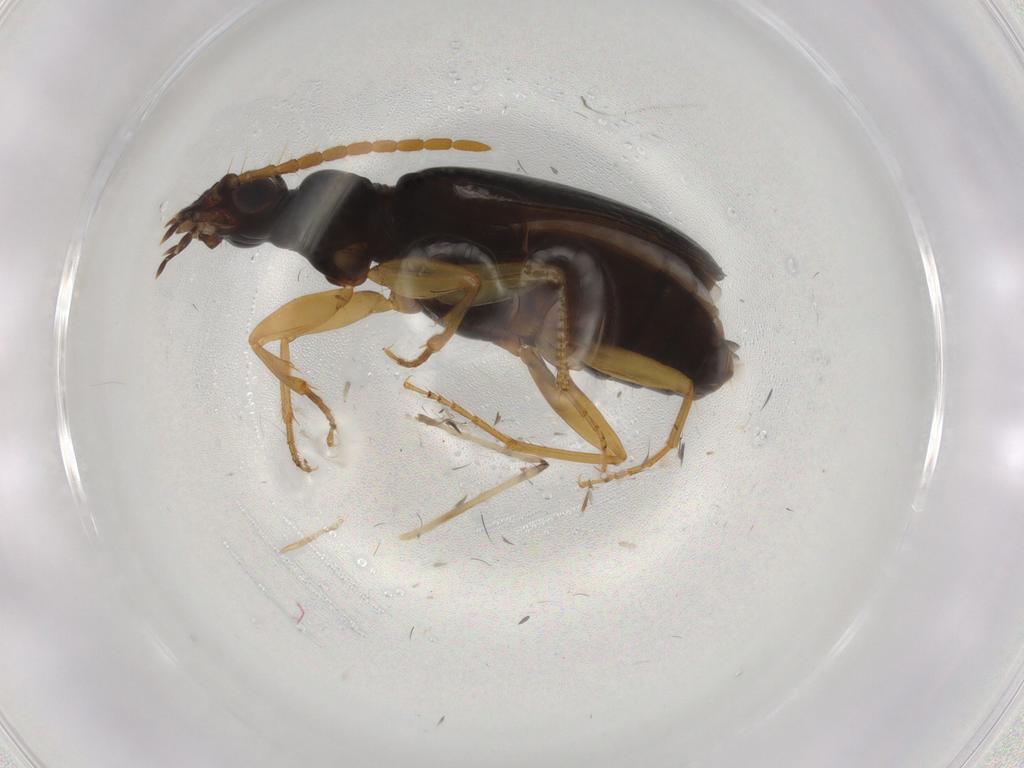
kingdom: Animalia
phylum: Arthropoda
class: Insecta
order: Coleoptera
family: Carabidae
